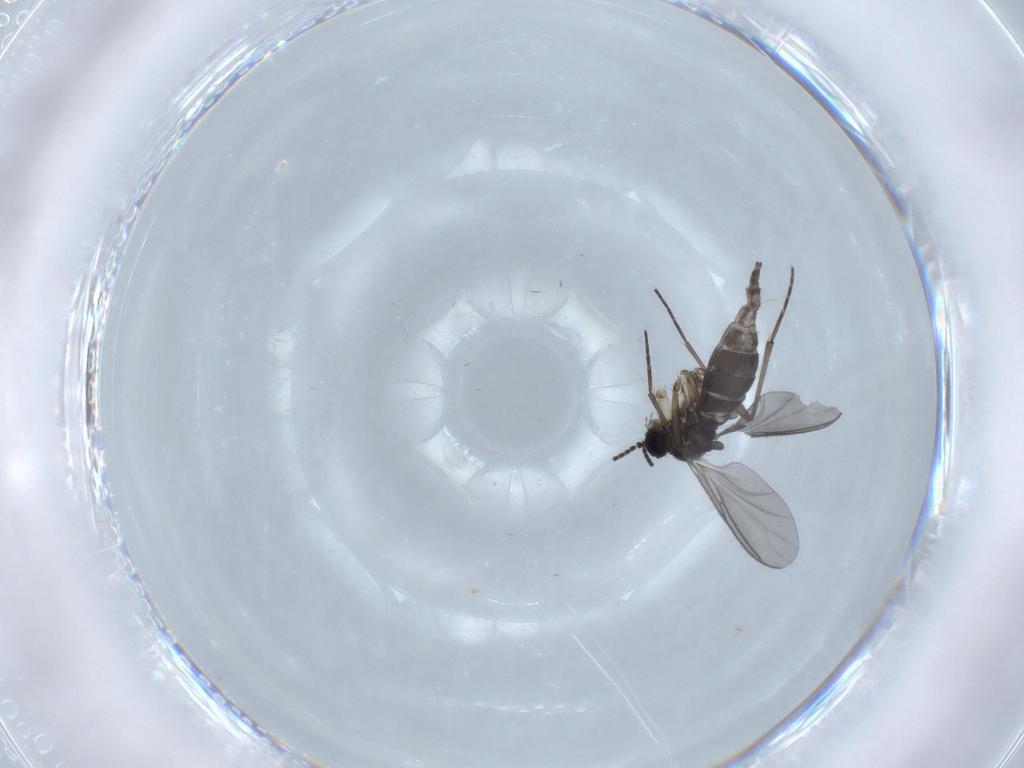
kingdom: Animalia
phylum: Arthropoda
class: Insecta
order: Diptera
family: Sciaridae
